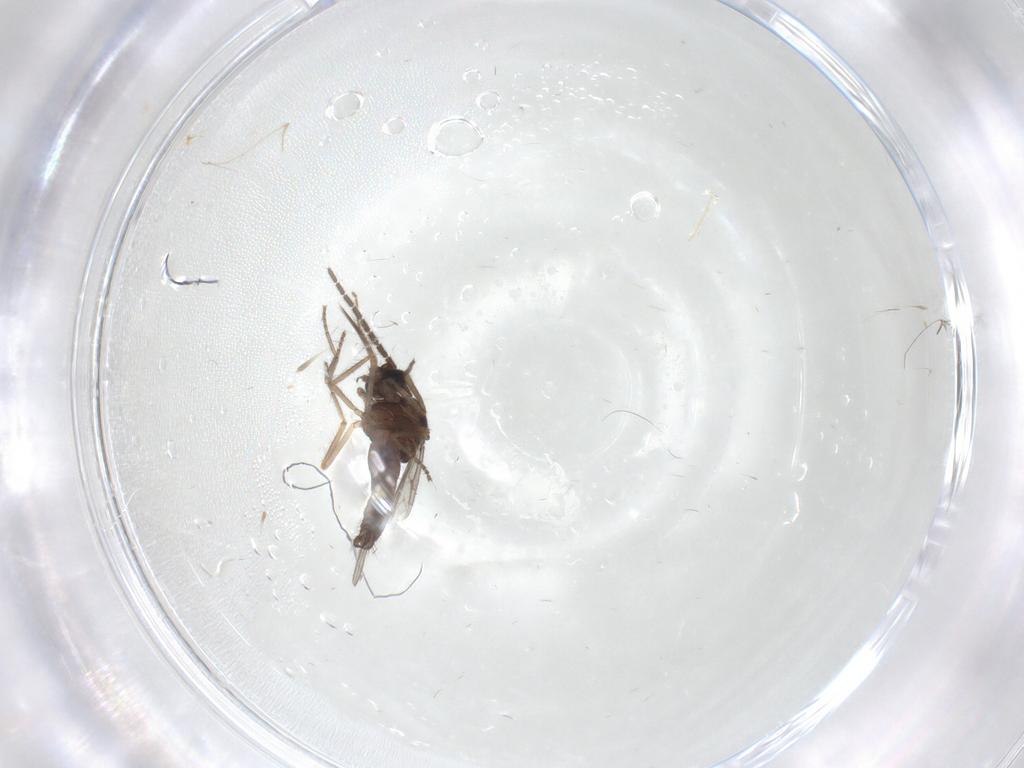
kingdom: Animalia
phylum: Arthropoda
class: Insecta
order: Diptera
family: Ceratopogonidae
